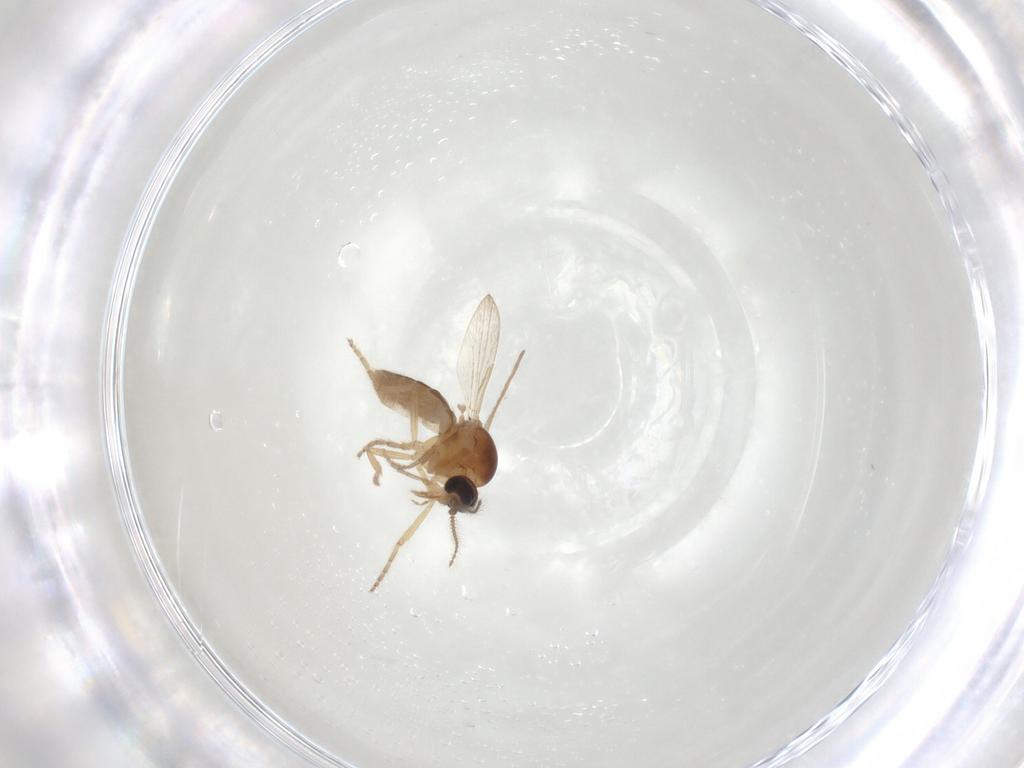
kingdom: Animalia
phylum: Arthropoda
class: Insecta
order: Diptera
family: Ceratopogonidae
